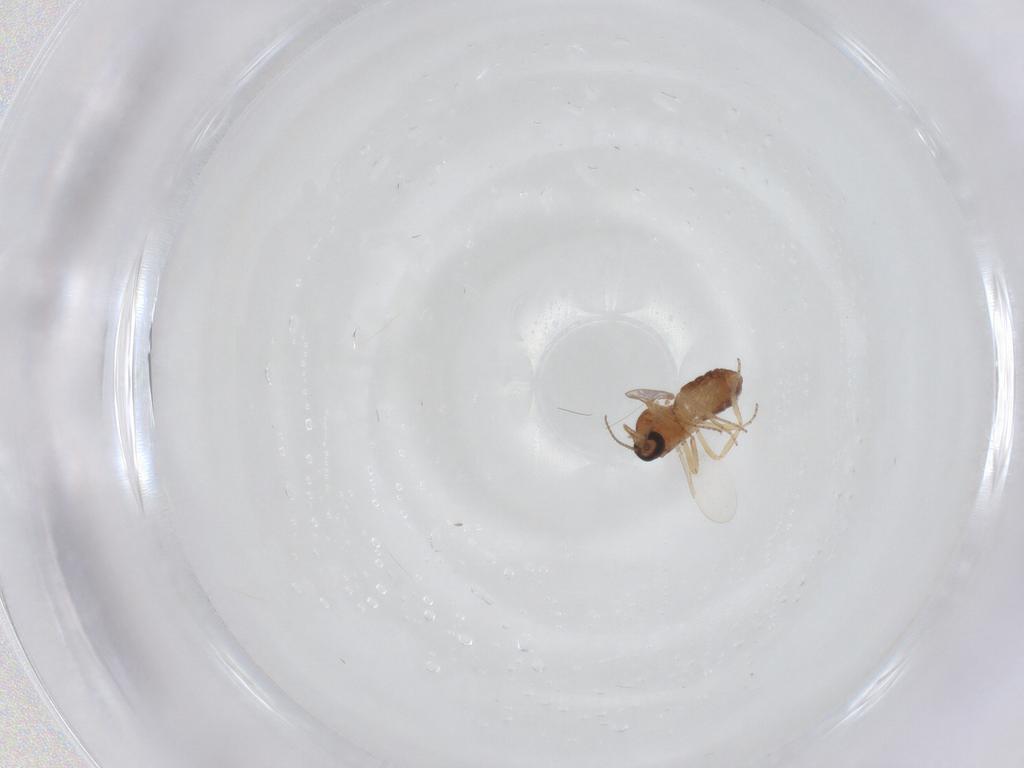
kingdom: Animalia
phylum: Arthropoda
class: Insecta
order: Diptera
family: Ceratopogonidae
